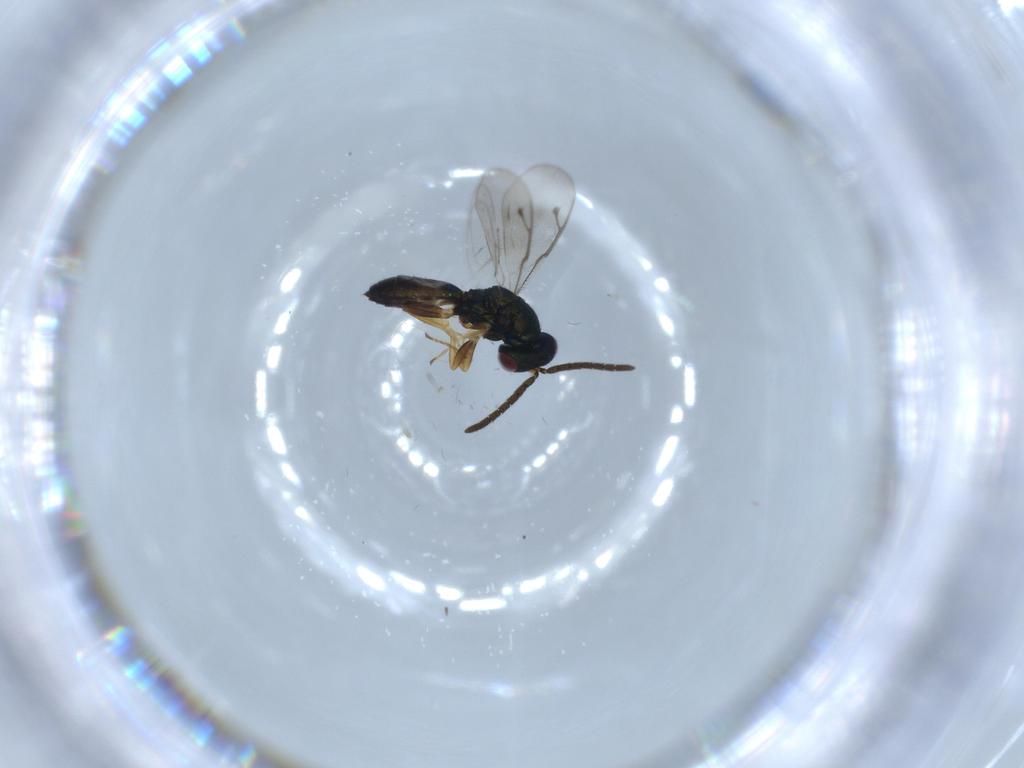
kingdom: Animalia
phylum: Arthropoda
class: Insecta
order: Hymenoptera
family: Pteromalidae
